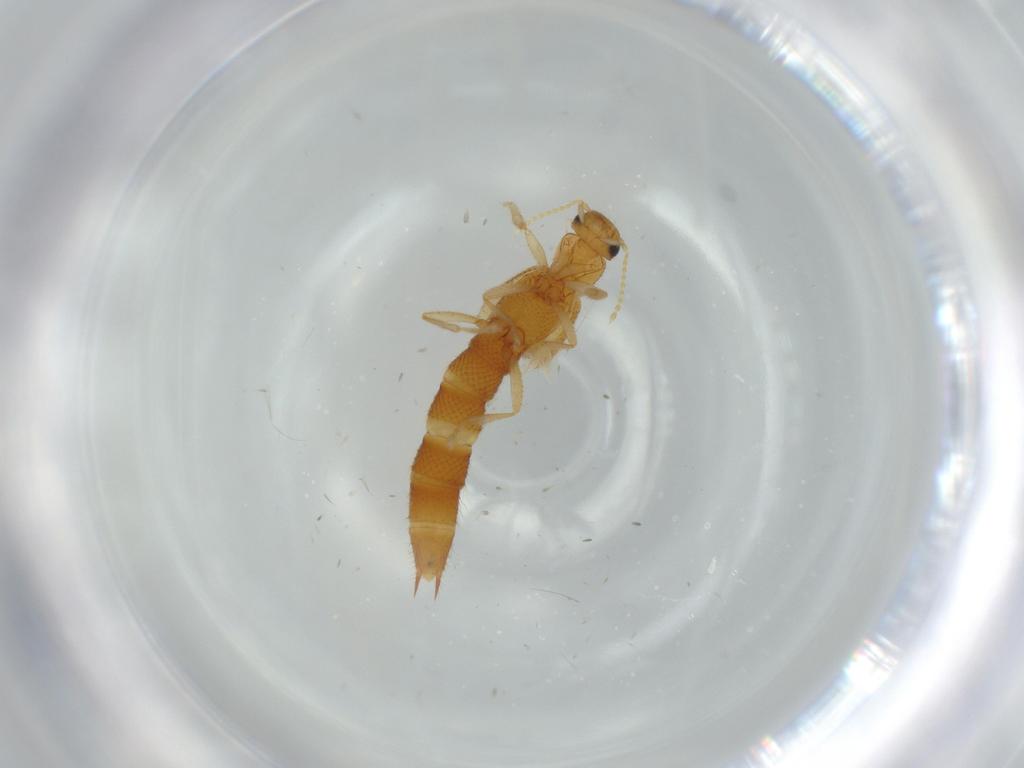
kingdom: Animalia
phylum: Arthropoda
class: Insecta
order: Coleoptera
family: Staphylinidae
